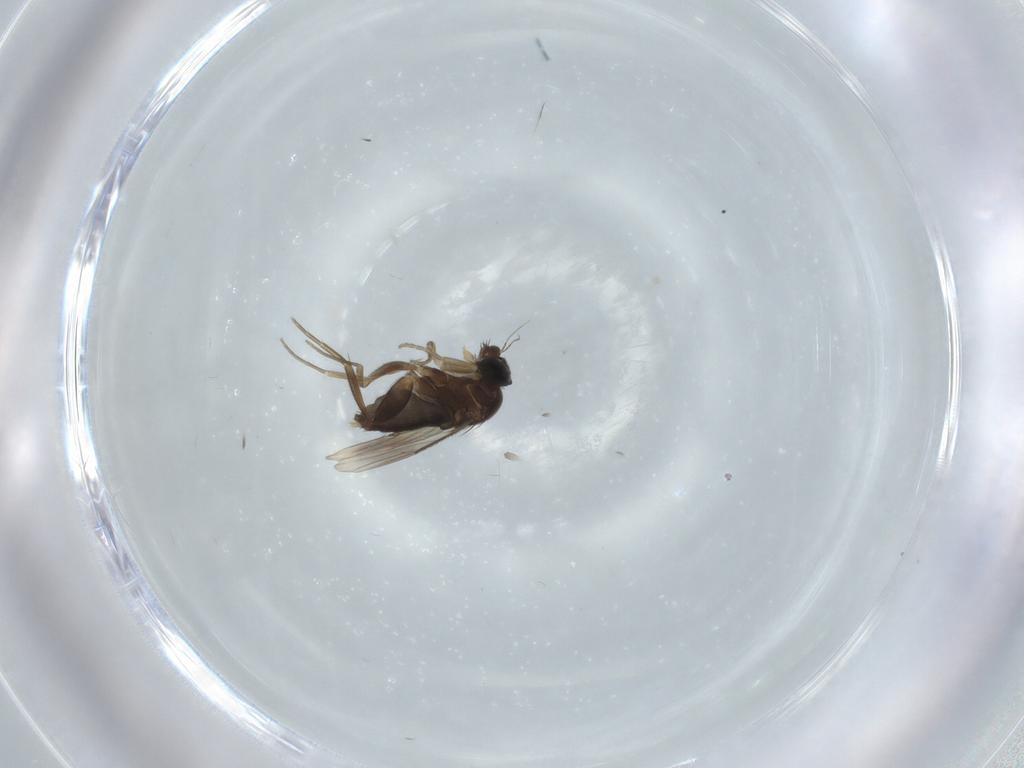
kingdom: Animalia
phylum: Arthropoda
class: Insecta
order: Diptera
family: Phoridae
